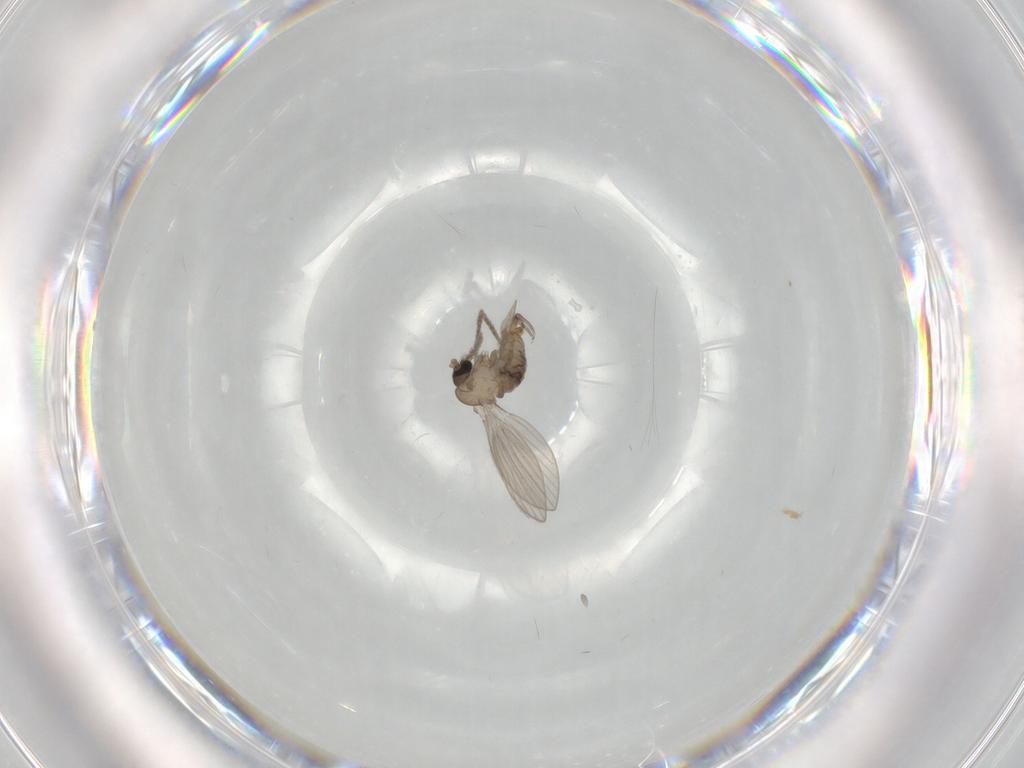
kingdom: Animalia
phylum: Arthropoda
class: Insecta
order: Diptera
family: Psychodidae
